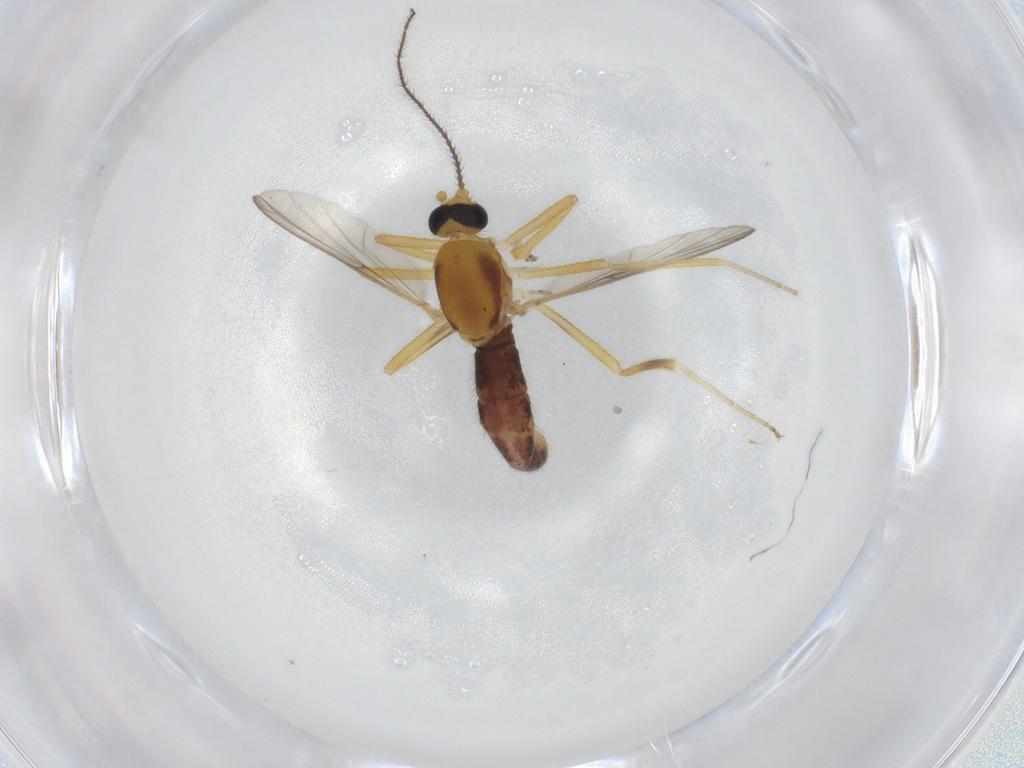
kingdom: Animalia
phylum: Arthropoda
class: Insecta
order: Diptera
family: Ceratopogonidae
